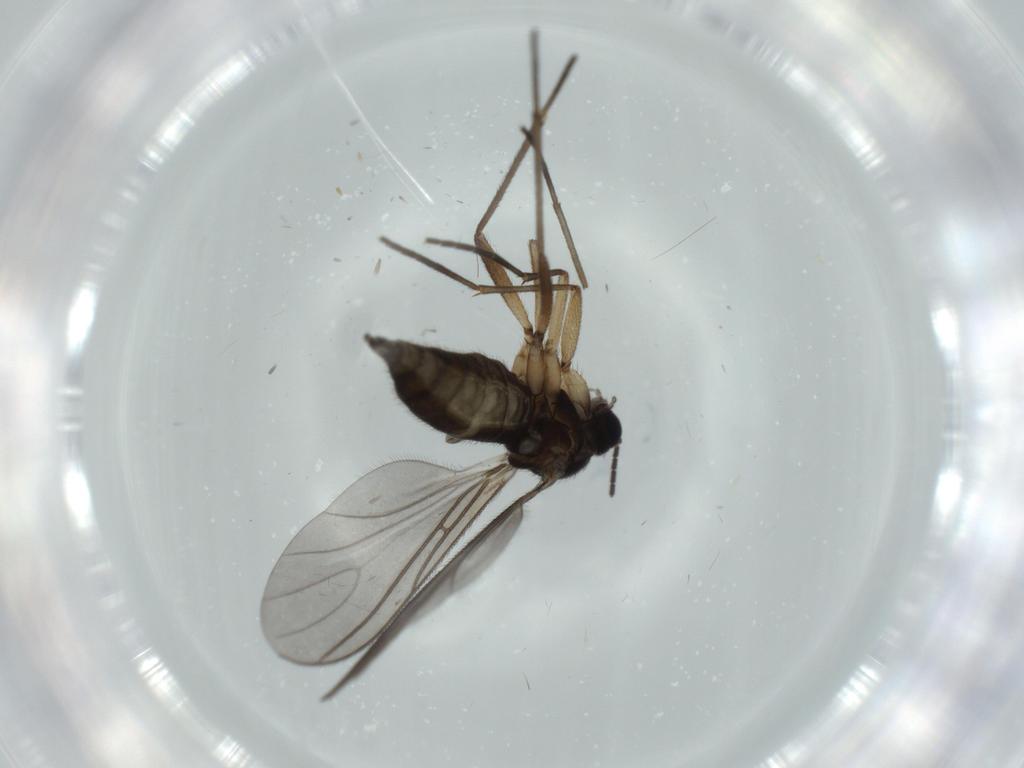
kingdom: Animalia
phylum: Arthropoda
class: Insecta
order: Diptera
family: Sciaridae
